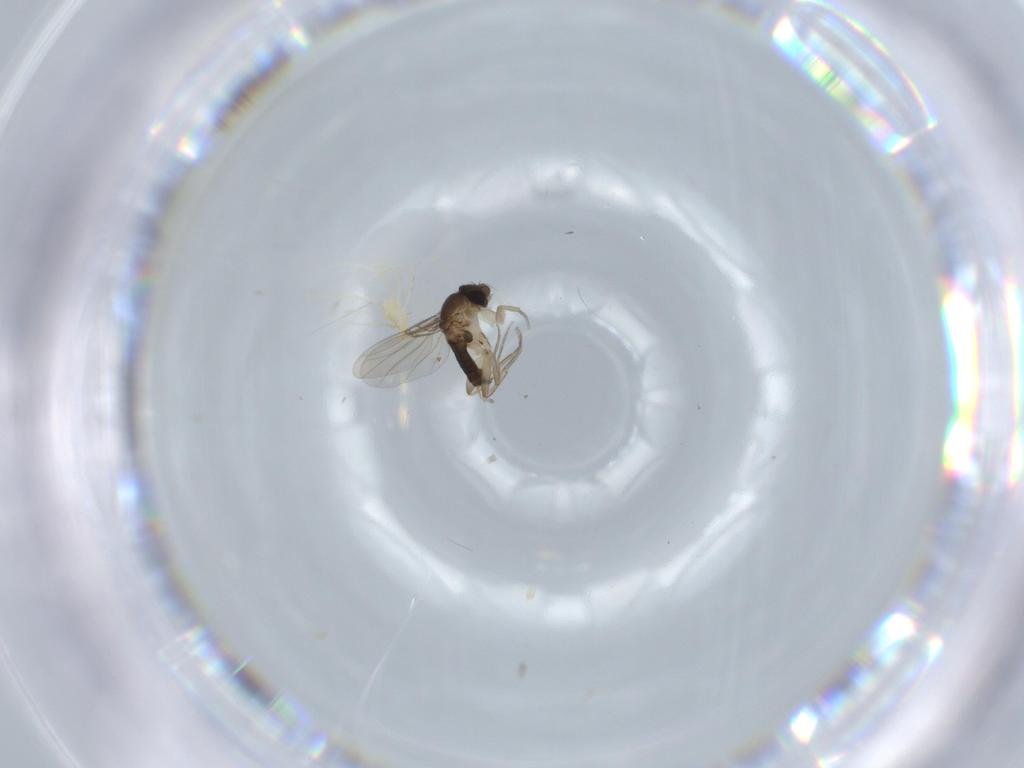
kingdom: Animalia
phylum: Arthropoda
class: Insecta
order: Diptera
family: Phoridae
